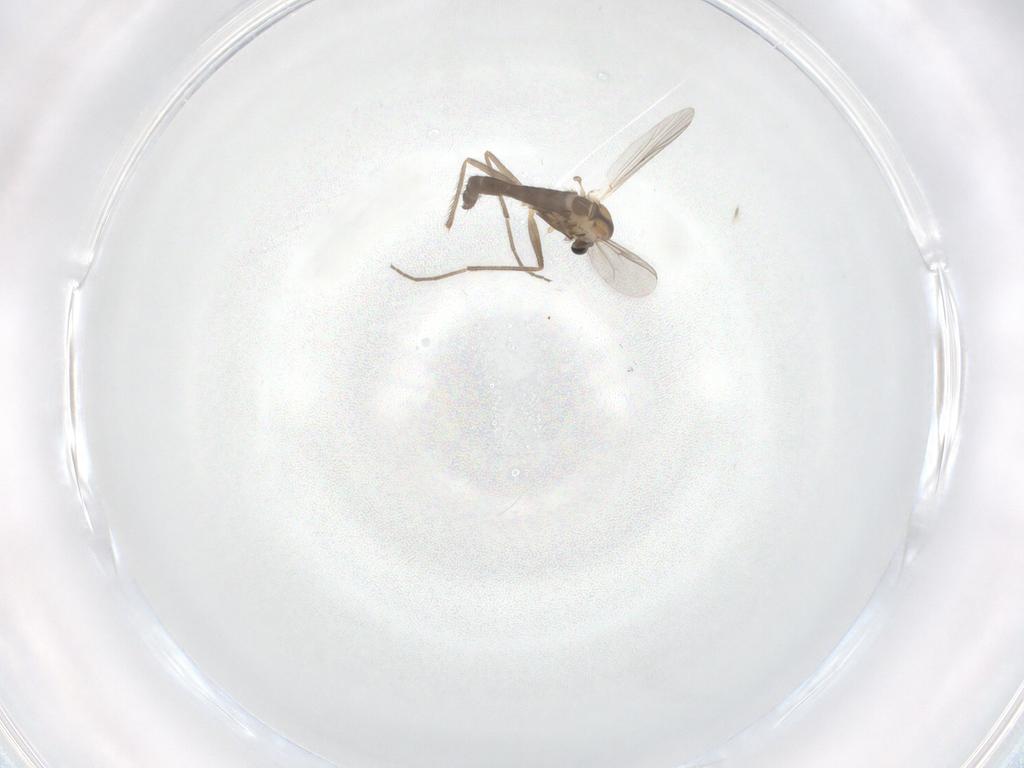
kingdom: Animalia
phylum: Arthropoda
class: Insecta
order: Diptera
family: Chironomidae
